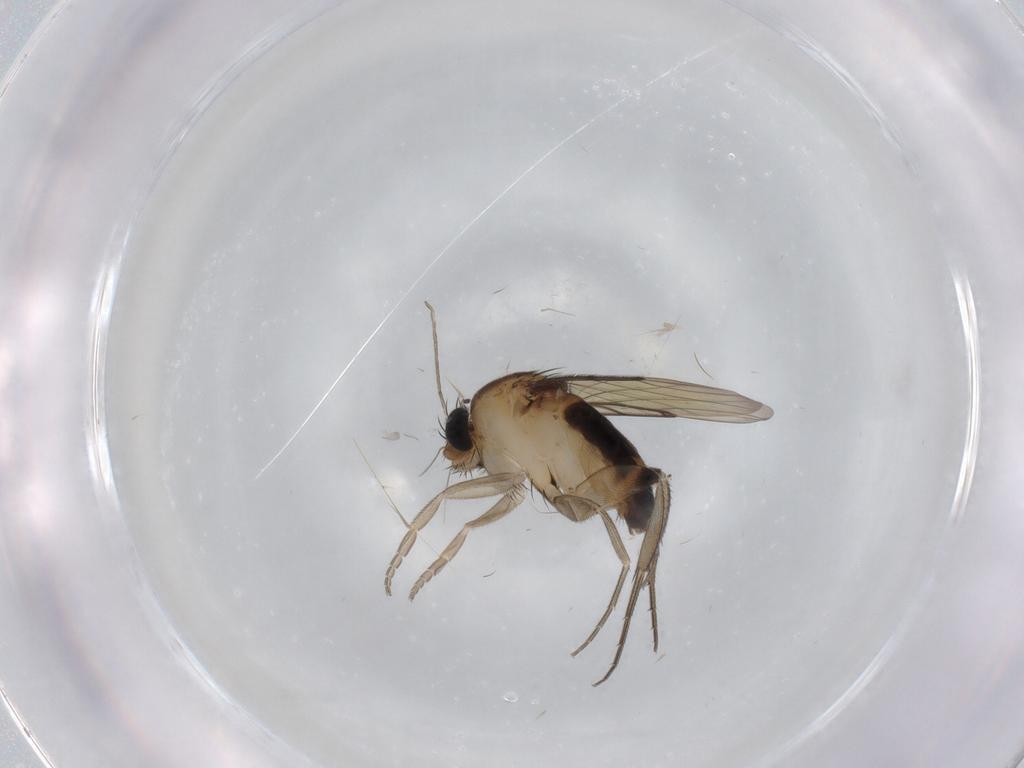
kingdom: Animalia
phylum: Arthropoda
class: Insecta
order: Diptera
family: Phoridae
